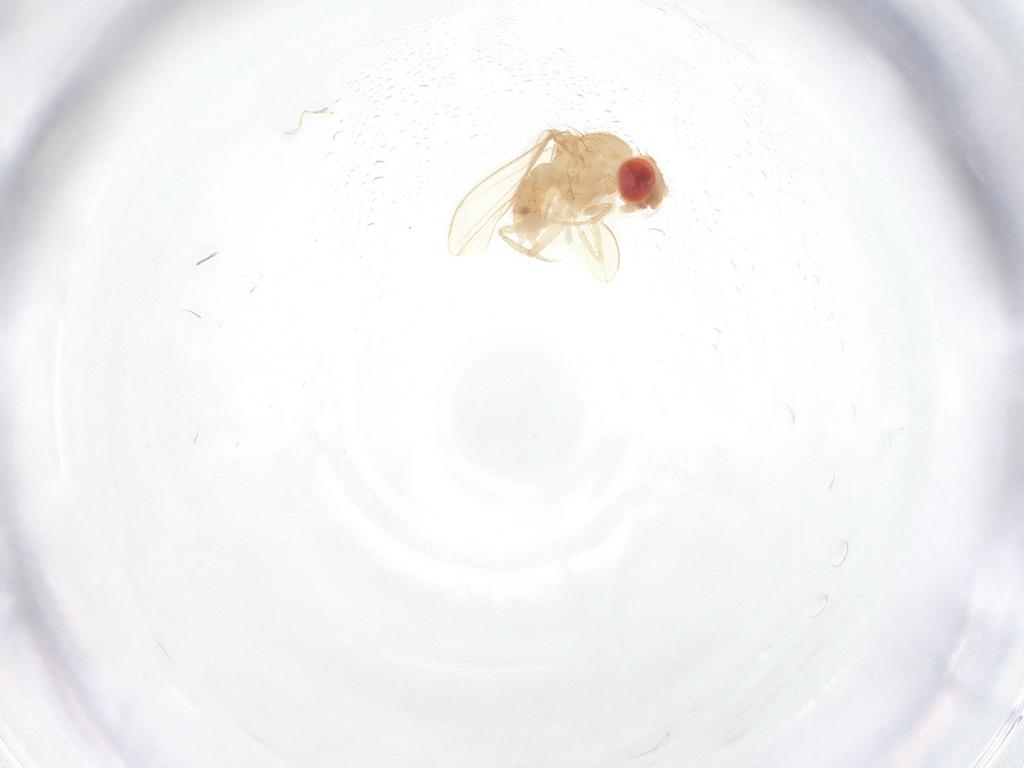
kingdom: Animalia
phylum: Arthropoda
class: Insecta
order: Diptera
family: Drosophilidae
